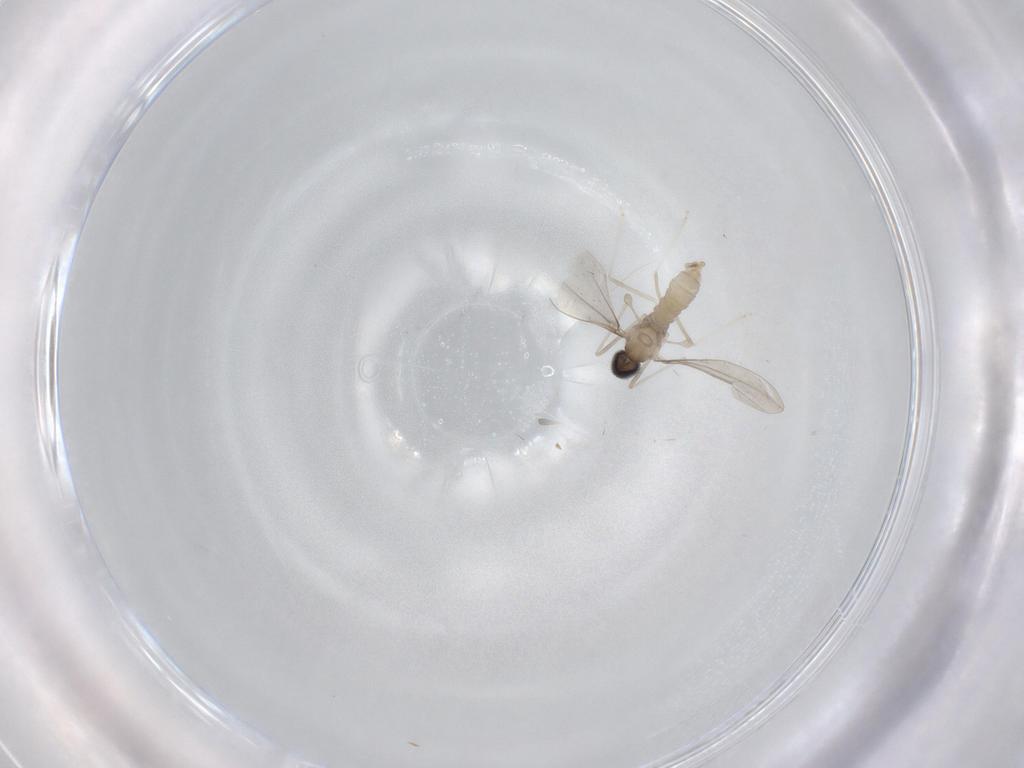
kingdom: Animalia
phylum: Arthropoda
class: Insecta
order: Diptera
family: Cecidomyiidae
